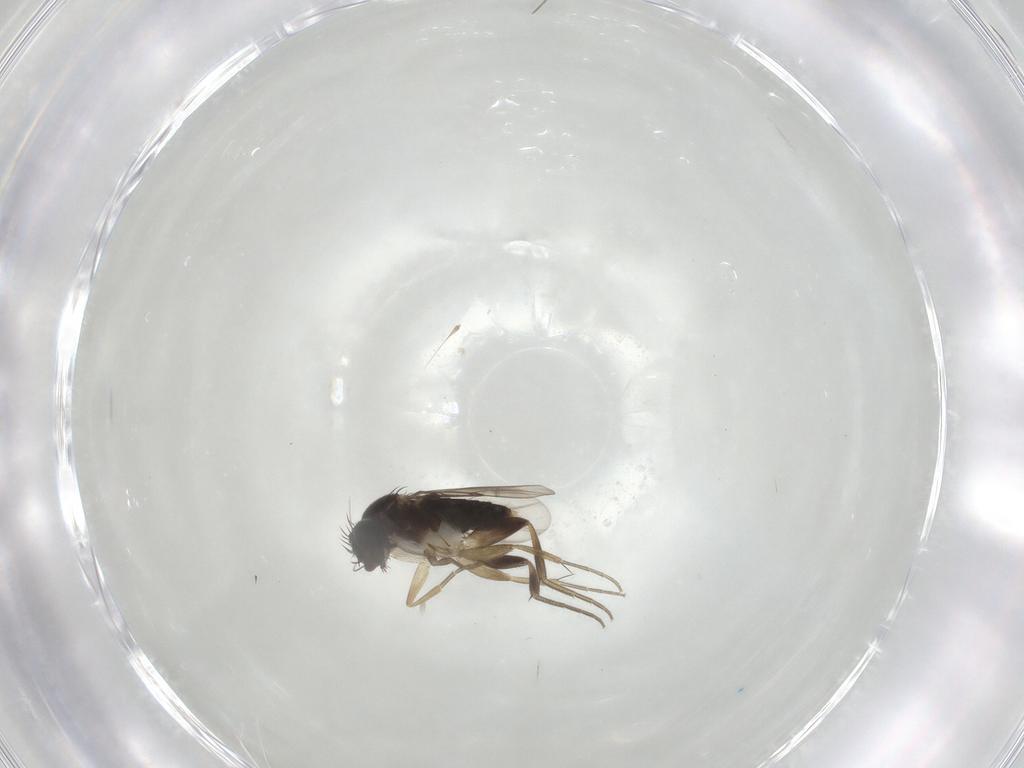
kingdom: Animalia
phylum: Arthropoda
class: Insecta
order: Diptera
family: Phoridae
